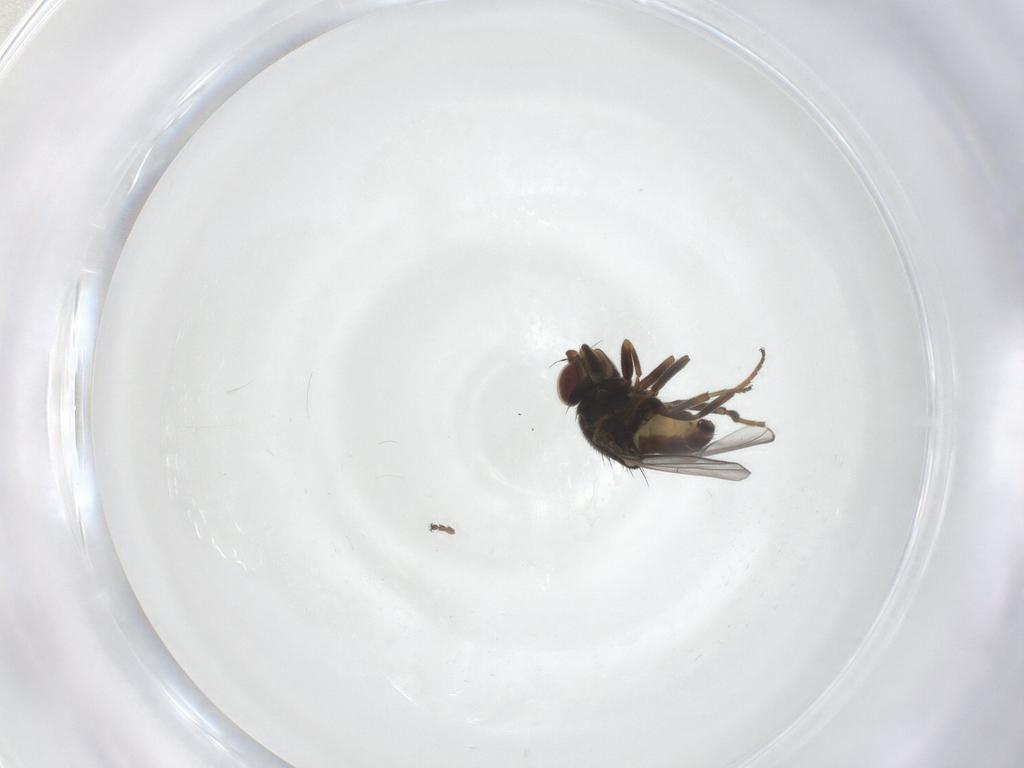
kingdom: Animalia
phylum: Arthropoda
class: Insecta
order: Diptera
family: Chloropidae
